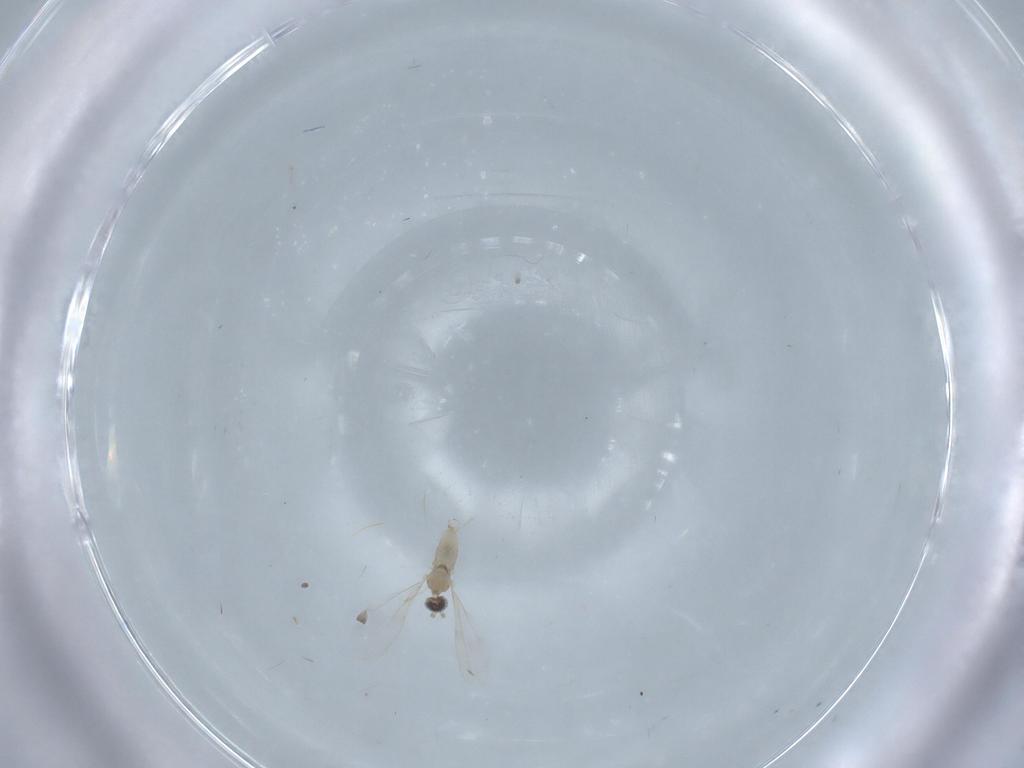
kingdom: Animalia
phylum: Arthropoda
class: Insecta
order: Diptera
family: Cecidomyiidae
